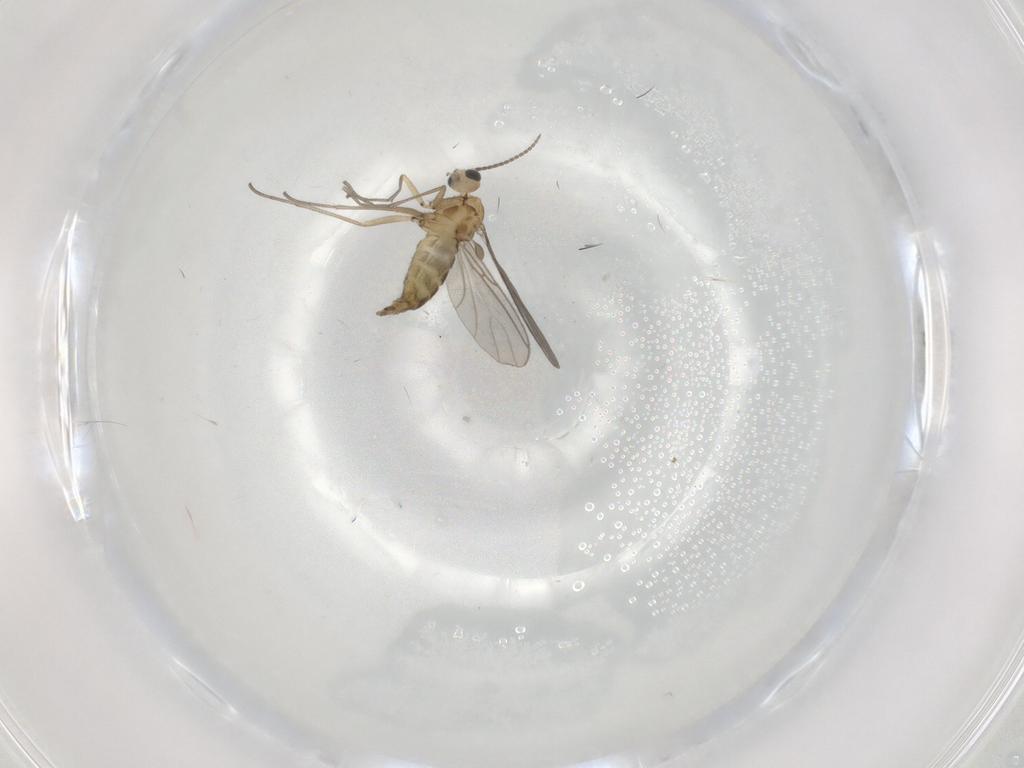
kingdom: Animalia
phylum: Arthropoda
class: Insecta
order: Diptera
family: Sciaridae
